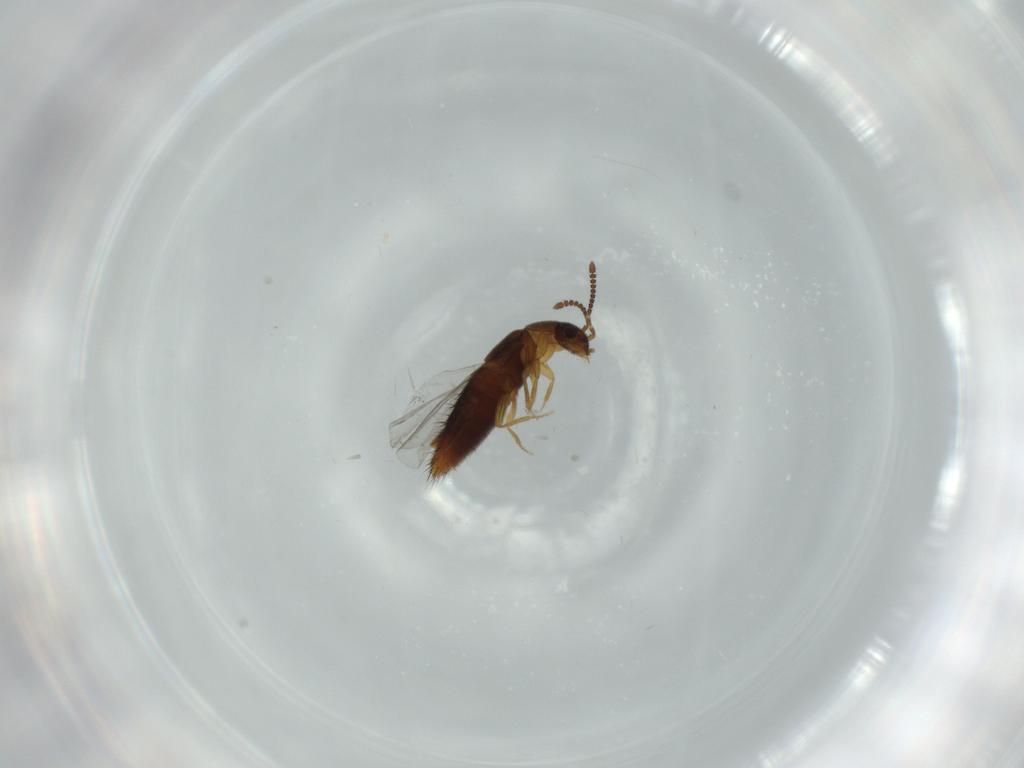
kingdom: Animalia
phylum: Arthropoda
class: Insecta
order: Coleoptera
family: Staphylinidae
